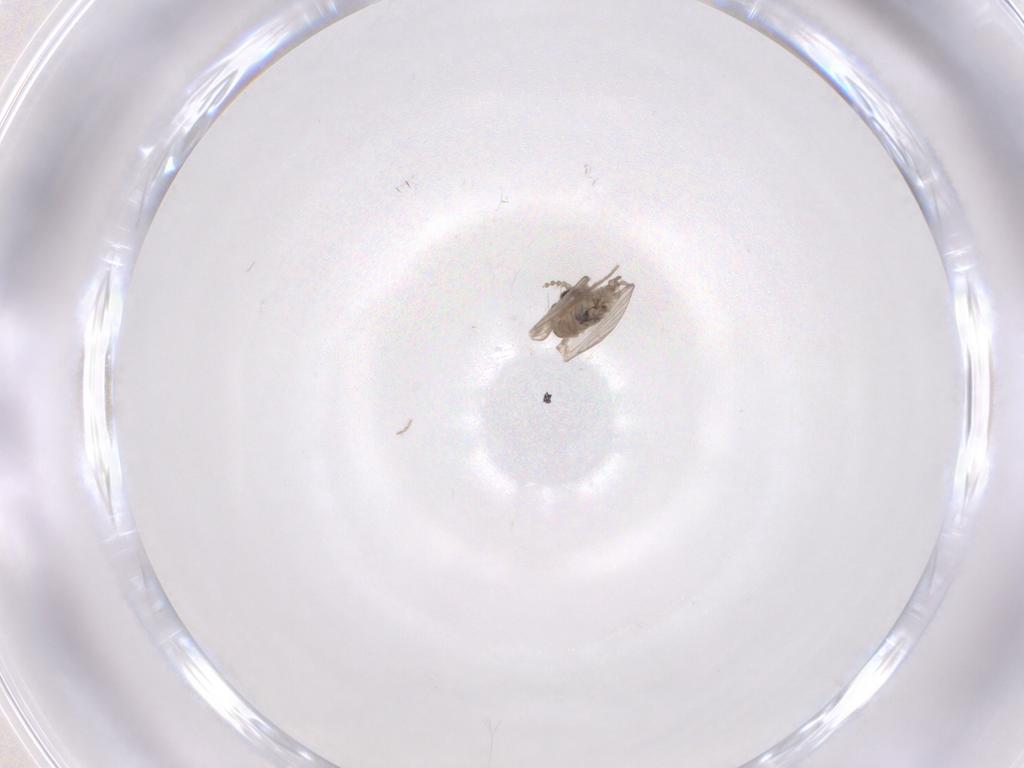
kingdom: Animalia
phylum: Arthropoda
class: Insecta
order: Diptera
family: Psychodidae
